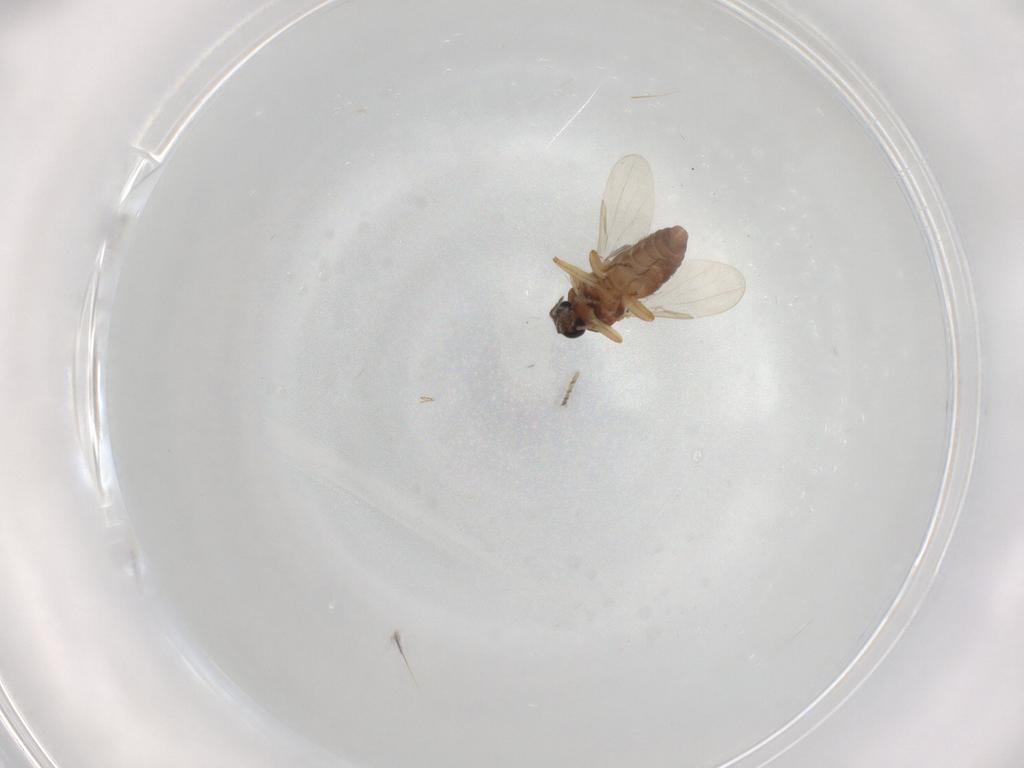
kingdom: Animalia
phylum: Arthropoda
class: Insecta
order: Diptera
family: Ceratopogonidae
